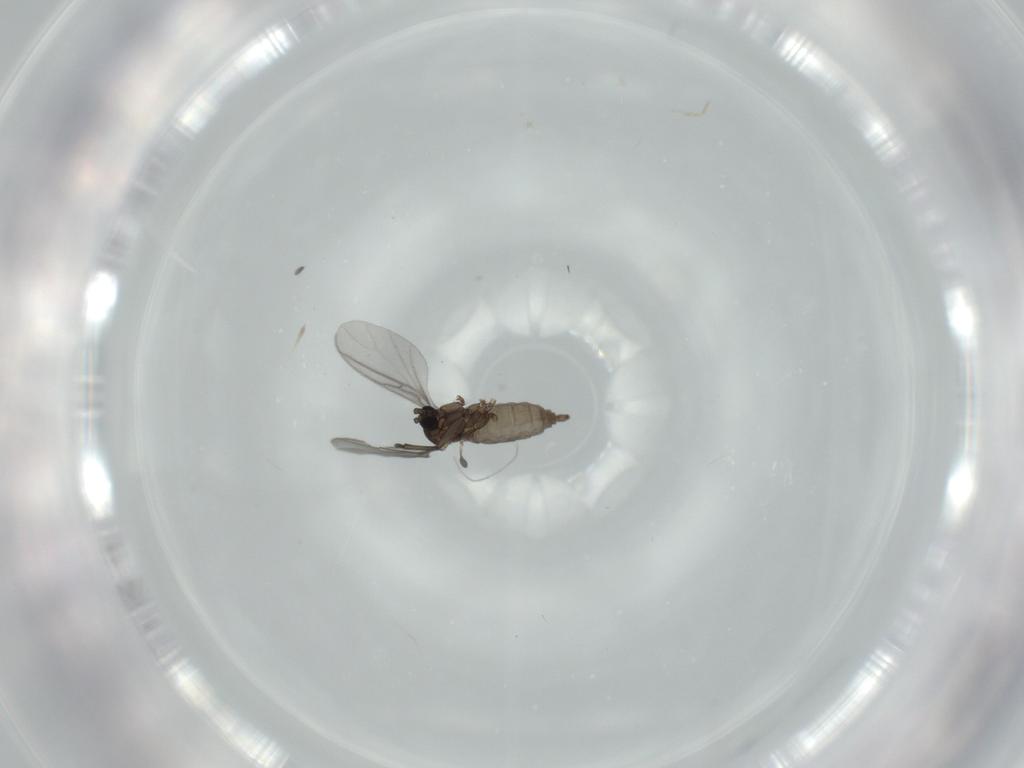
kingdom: Animalia
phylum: Arthropoda
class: Insecta
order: Diptera
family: Sciaridae
